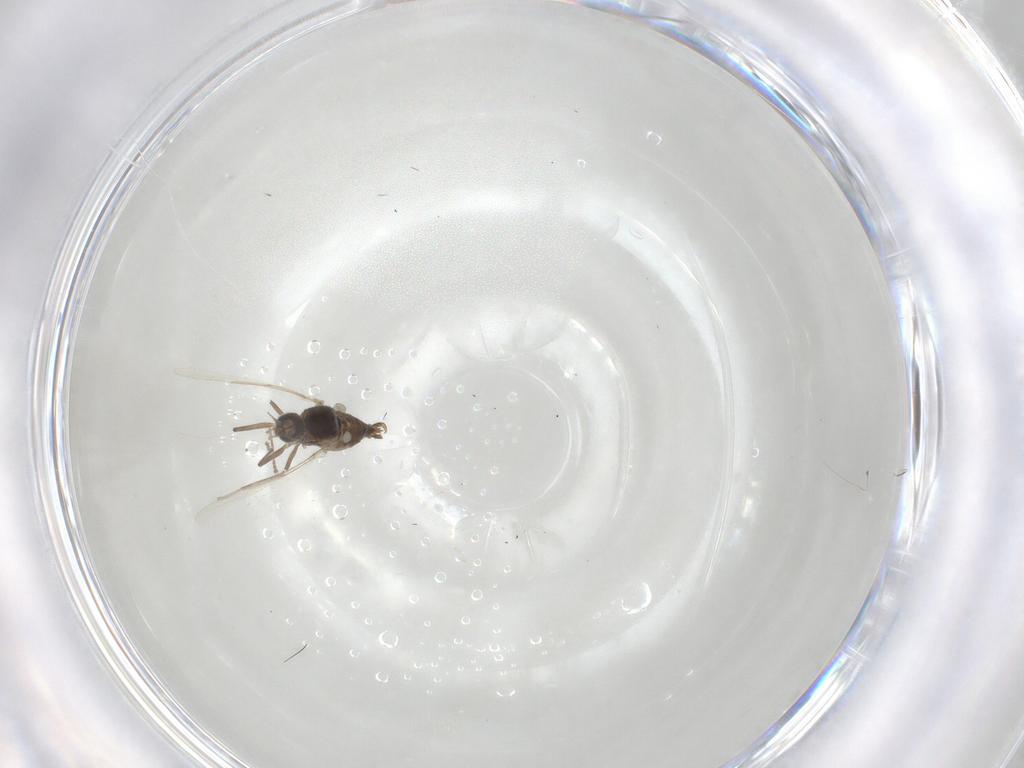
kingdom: Animalia
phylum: Arthropoda
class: Insecta
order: Diptera
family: Cecidomyiidae
